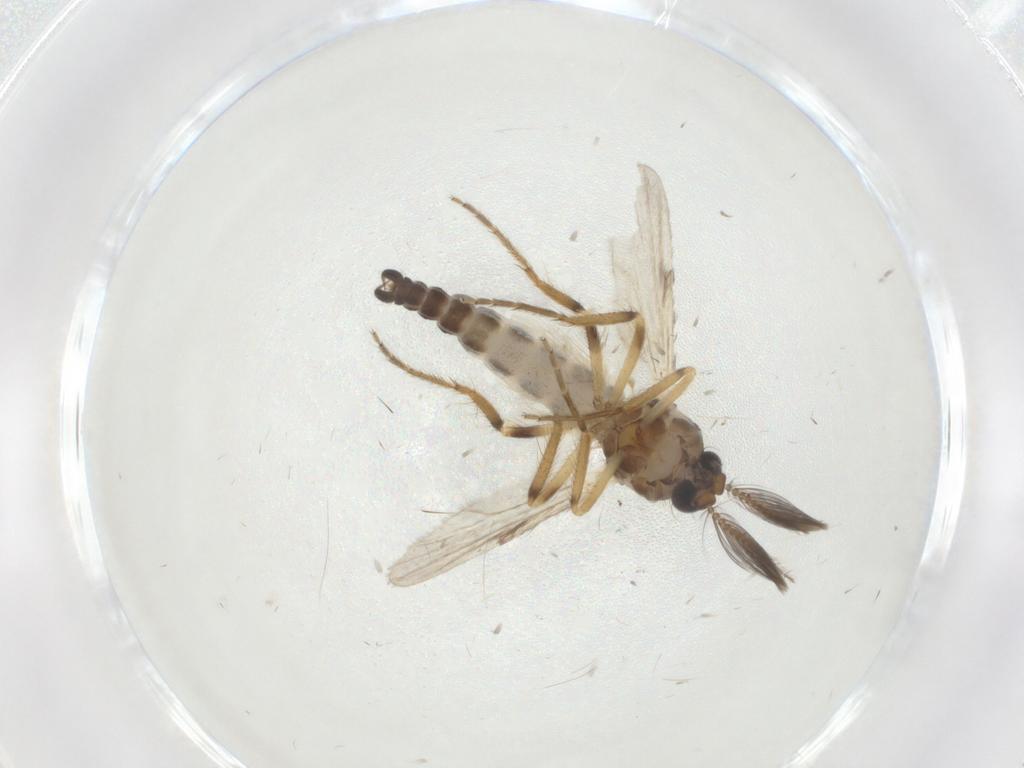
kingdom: Animalia
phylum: Arthropoda
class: Insecta
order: Diptera
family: Ceratopogonidae
